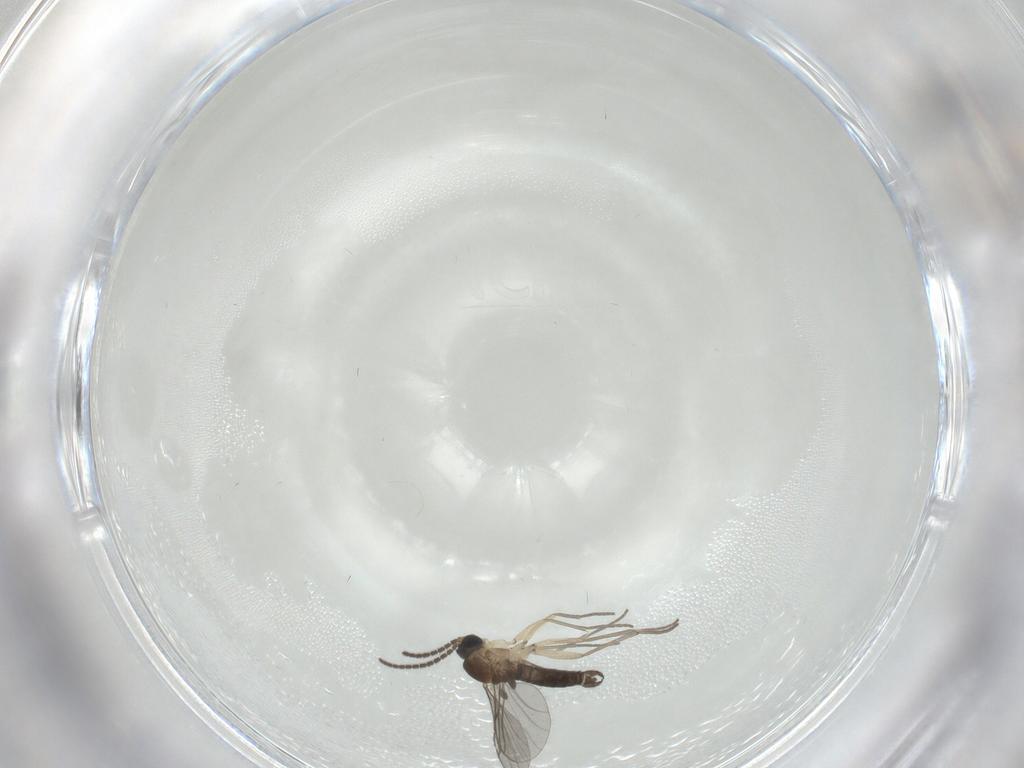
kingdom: Animalia
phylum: Arthropoda
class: Insecta
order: Diptera
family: Sciaridae
